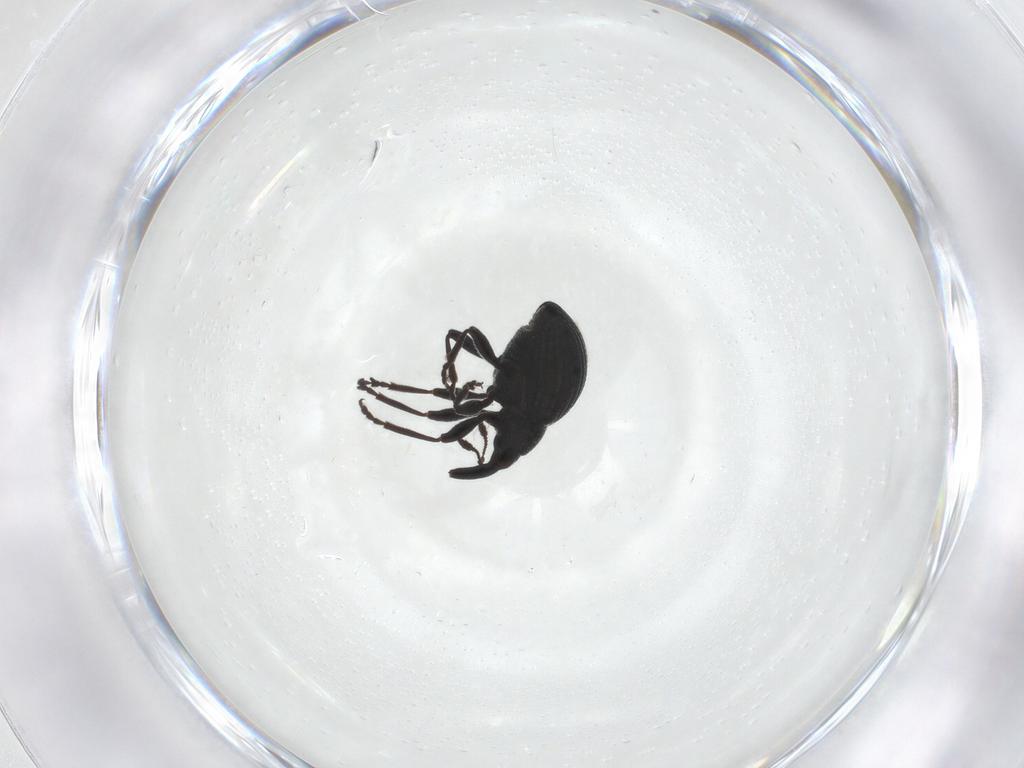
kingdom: Animalia
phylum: Arthropoda
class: Insecta
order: Coleoptera
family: Brentidae
